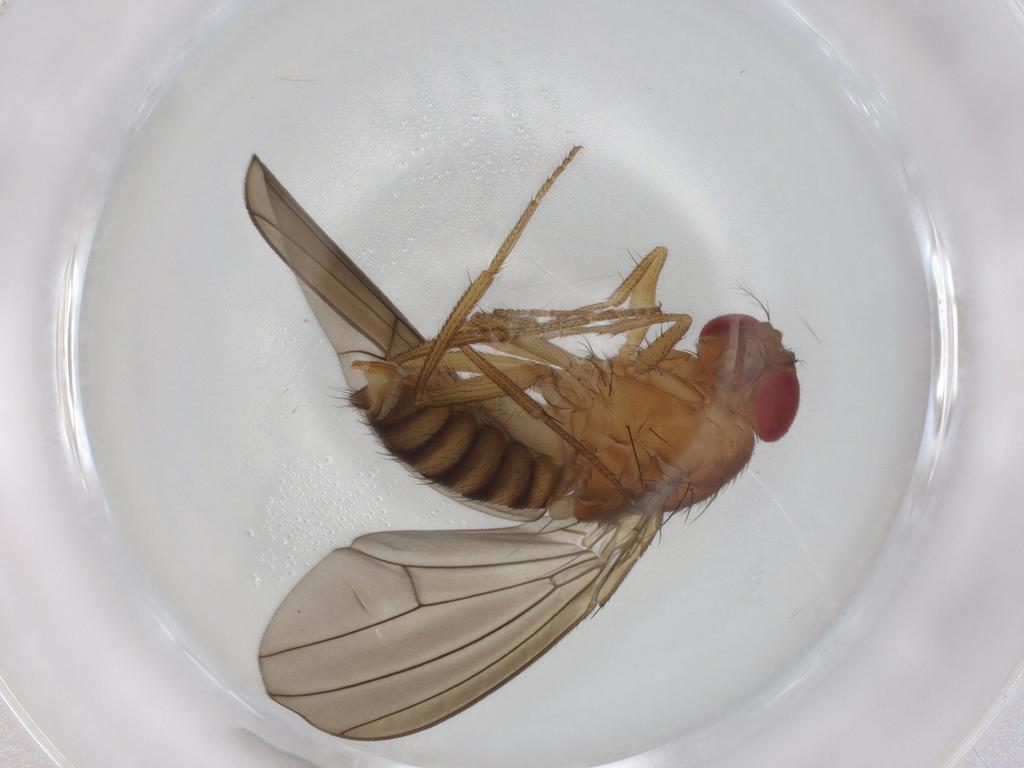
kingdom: Animalia
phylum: Arthropoda
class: Insecta
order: Diptera
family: Drosophilidae
